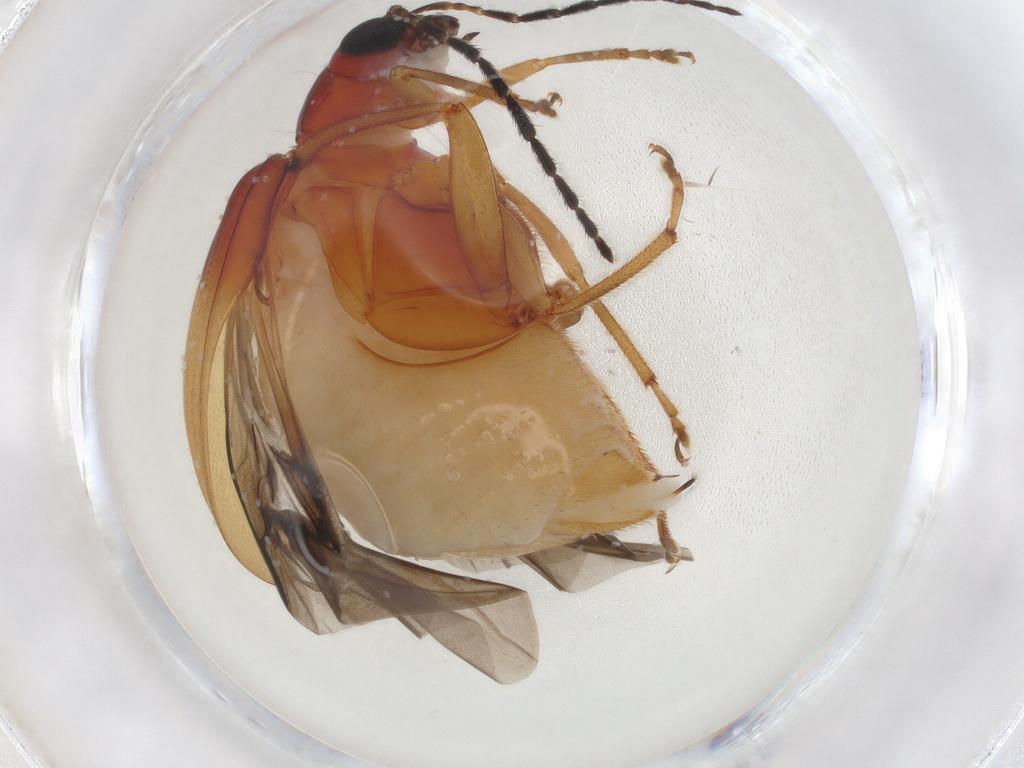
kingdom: Animalia
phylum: Arthropoda
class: Insecta
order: Coleoptera
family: Chrysomelidae
